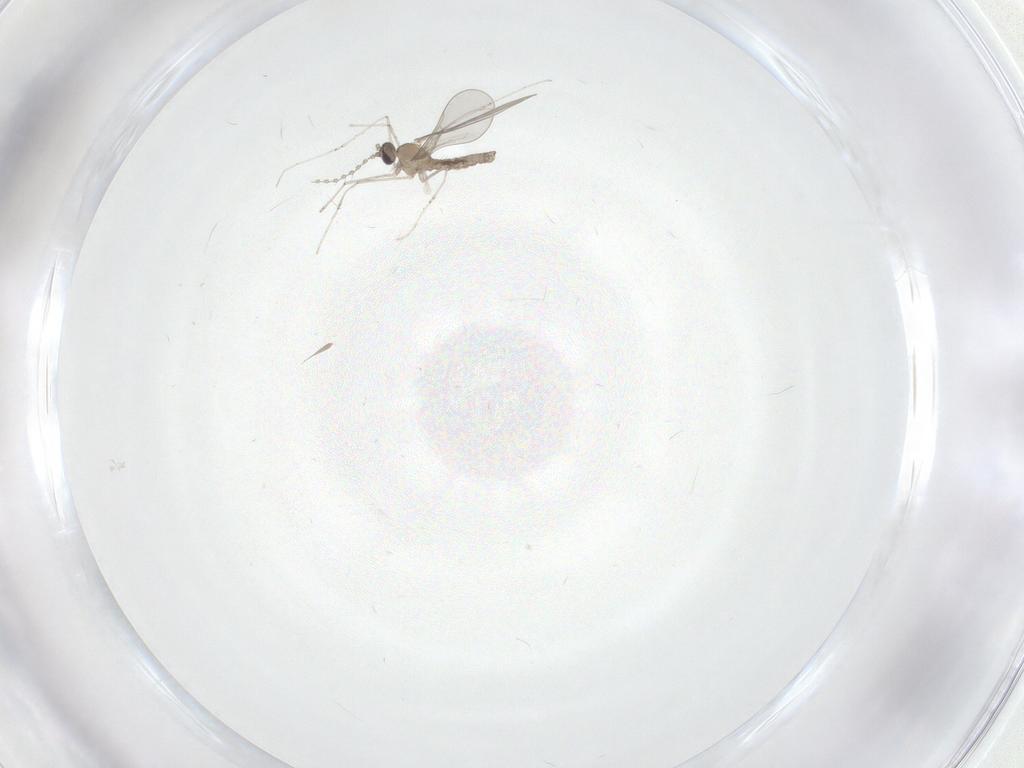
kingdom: Animalia
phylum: Arthropoda
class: Insecta
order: Diptera
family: Cecidomyiidae
